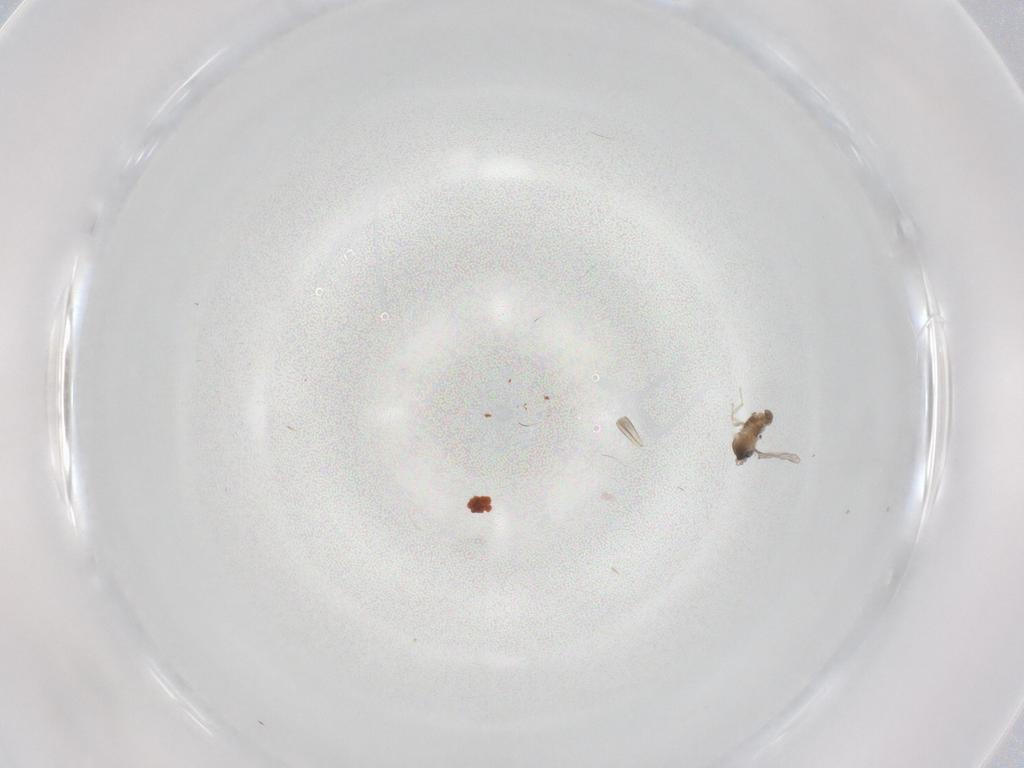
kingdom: Animalia
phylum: Arthropoda
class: Insecta
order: Diptera
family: Cecidomyiidae
